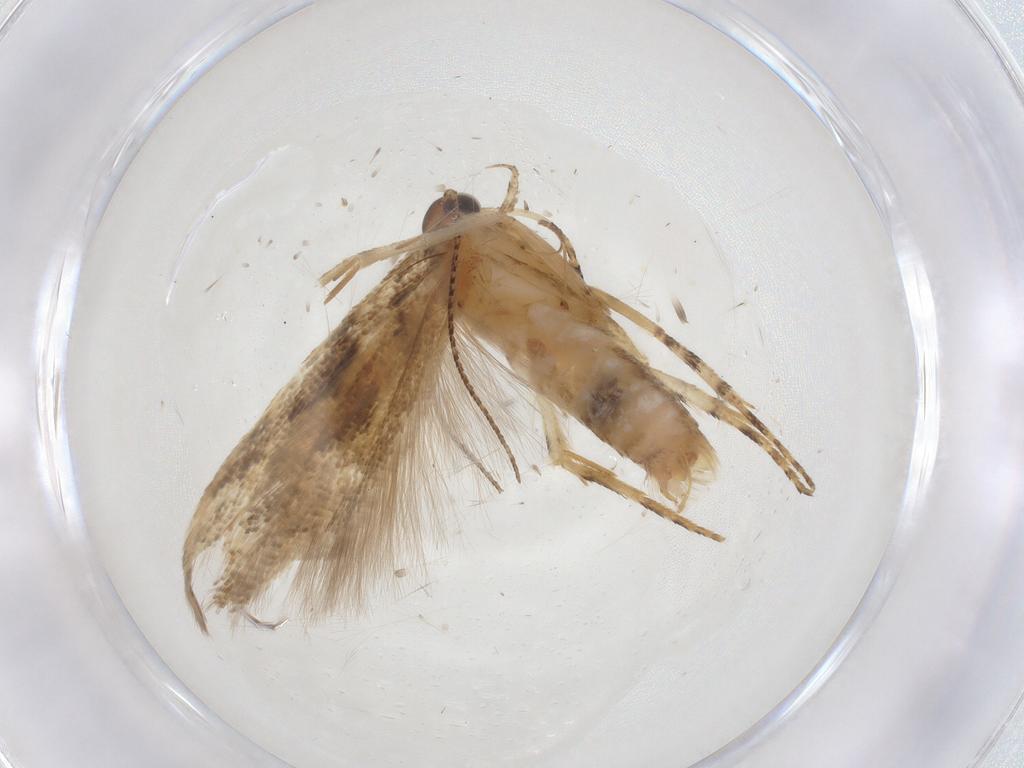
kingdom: Animalia
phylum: Arthropoda
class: Insecta
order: Lepidoptera
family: Gelechiidae
